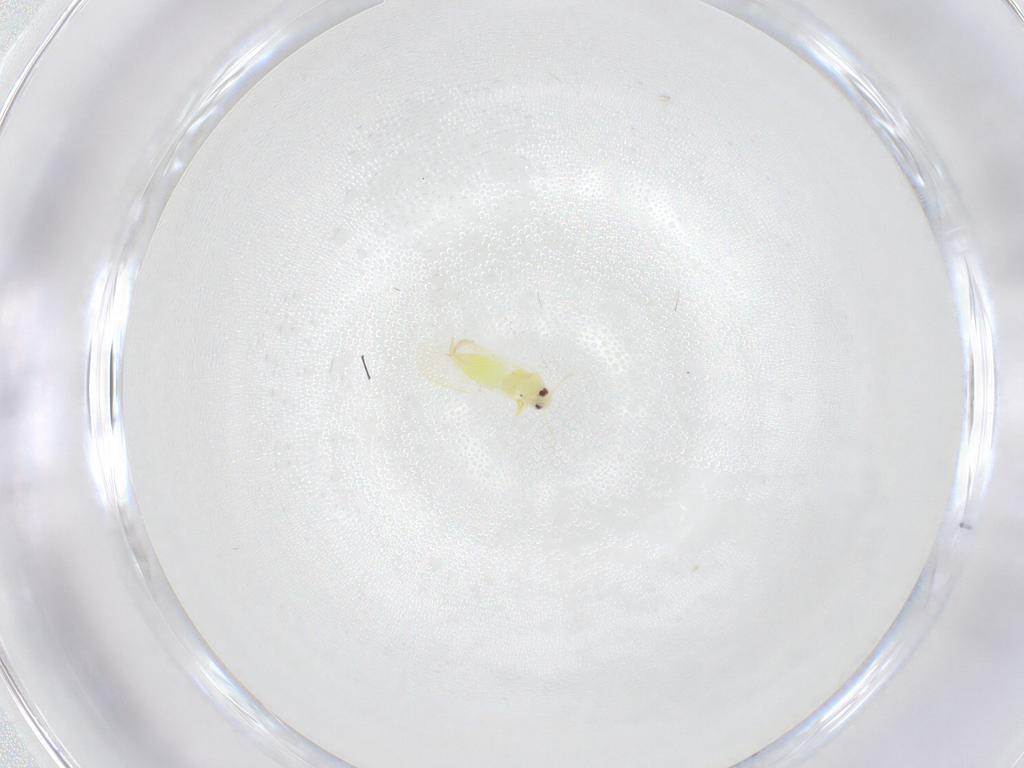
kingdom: Animalia
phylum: Arthropoda
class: Insecta
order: Hemiptera
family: Aleyrodidae
